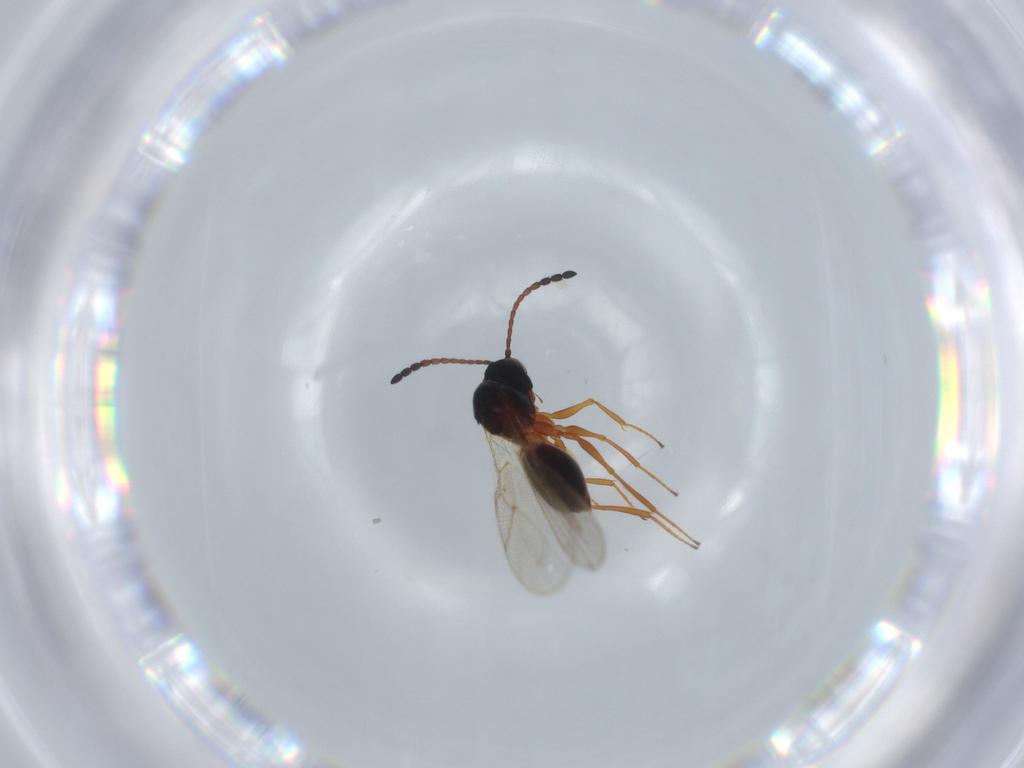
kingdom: Animalia
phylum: Arthropoda
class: Insecta
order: Hymenoptera
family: Figitidae
